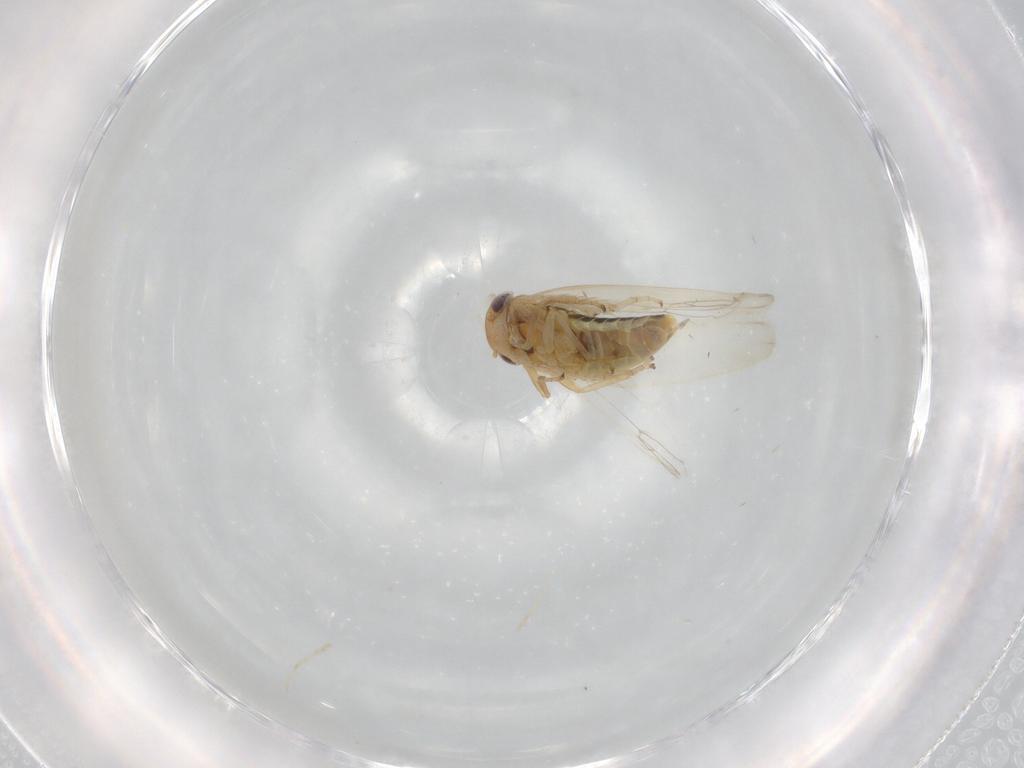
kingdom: Animalia
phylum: Arthropoda
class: Insecta
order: Hemiptera
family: Cicadellidae
